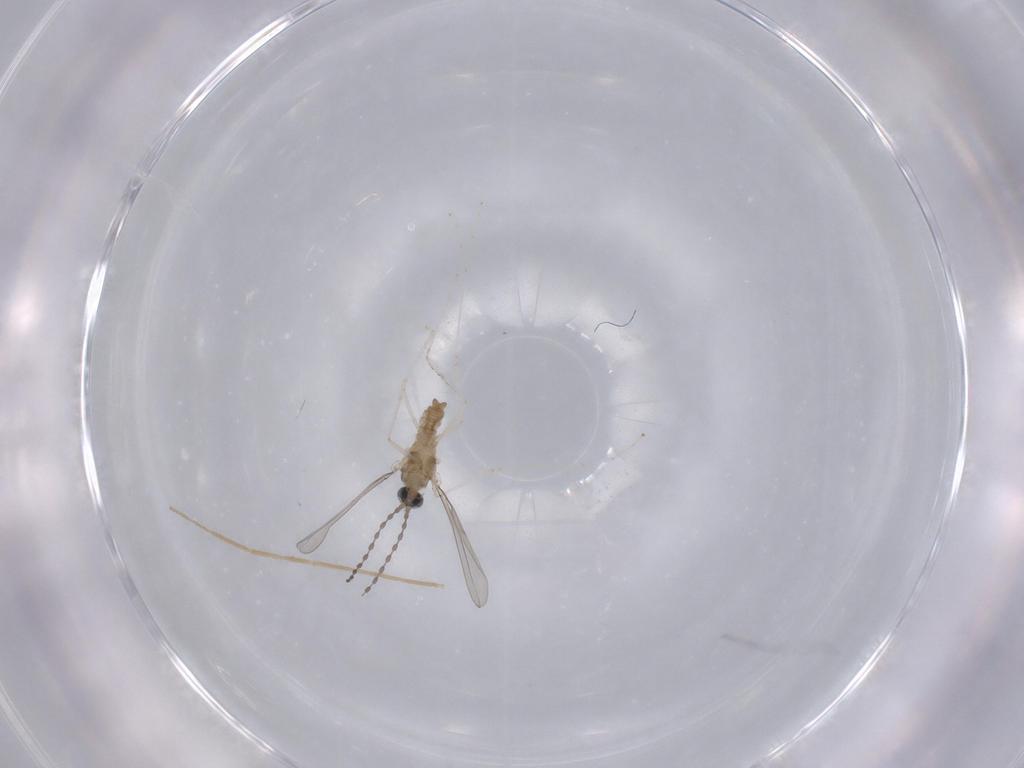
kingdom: Animalia
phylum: Arthropoda
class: Insecta
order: Diptera
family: Chironomidae
